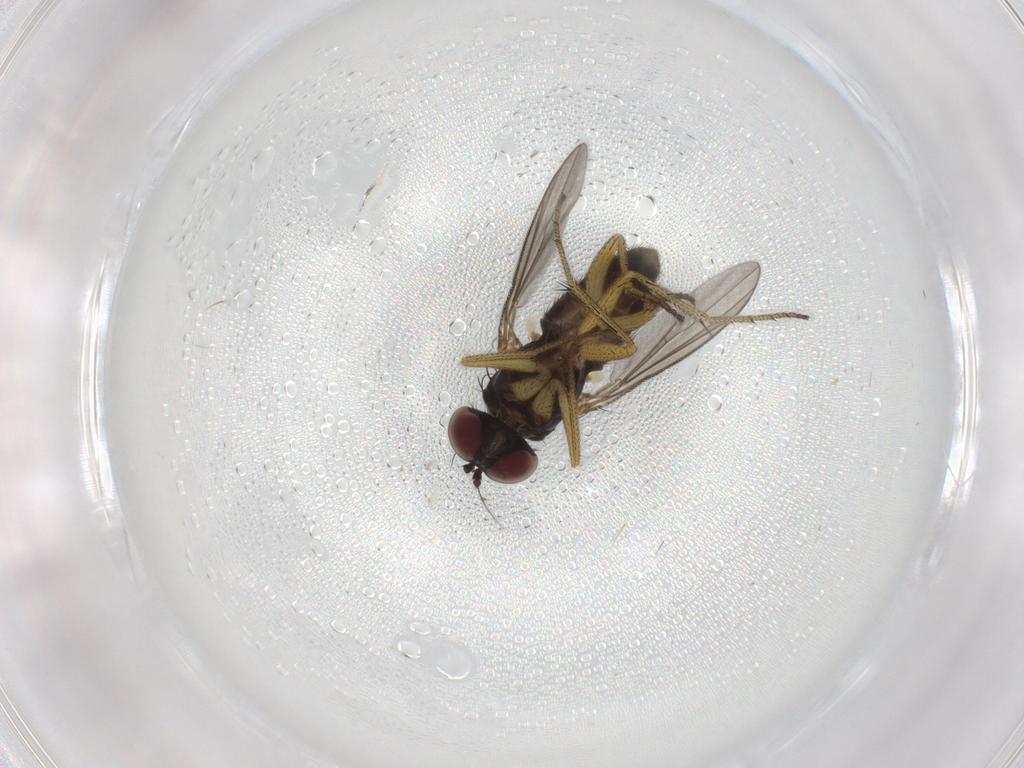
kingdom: Animalia
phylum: Arthropoda
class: Insecta
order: Diptera
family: Dolichopodidae
